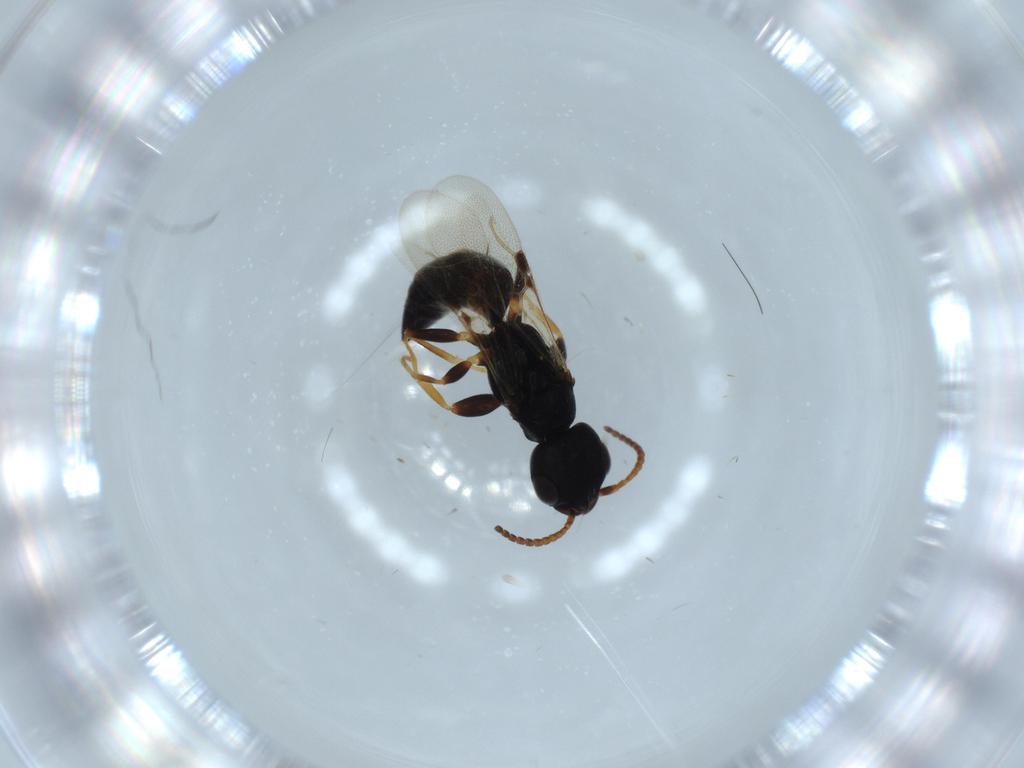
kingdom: Animalia
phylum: Arthropoda
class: Insecta
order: Hymenoptera
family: Bethylidae
